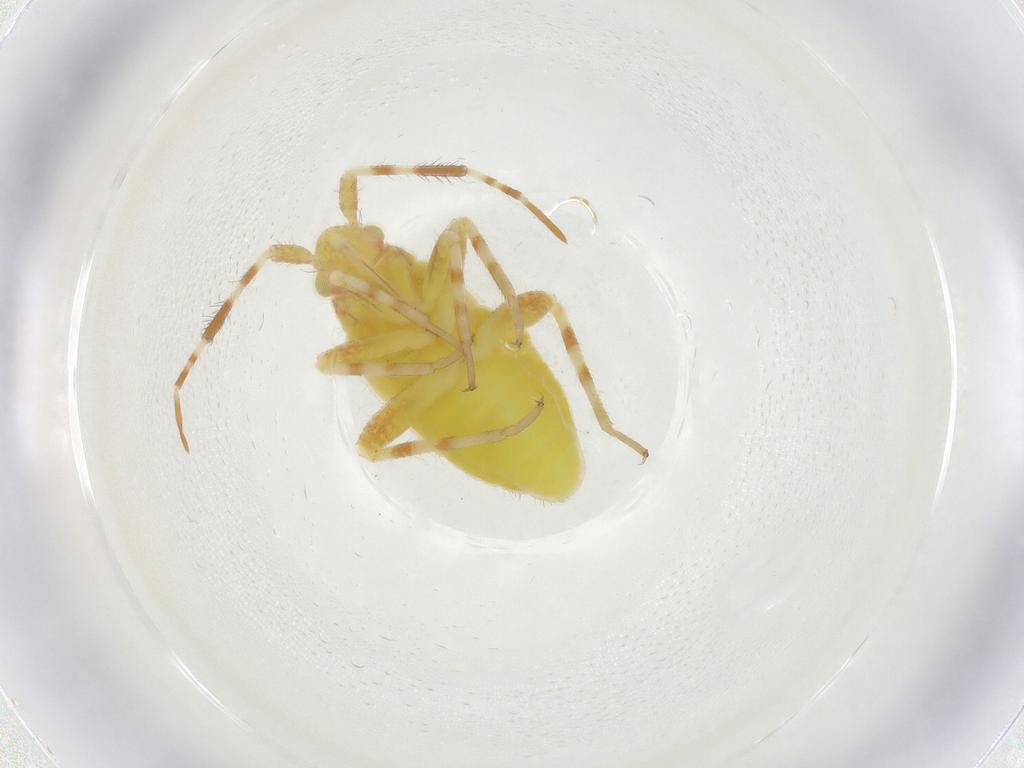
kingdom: Animalia
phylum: Arthropoda
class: Insecta
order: Hemiptera
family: Miridae
